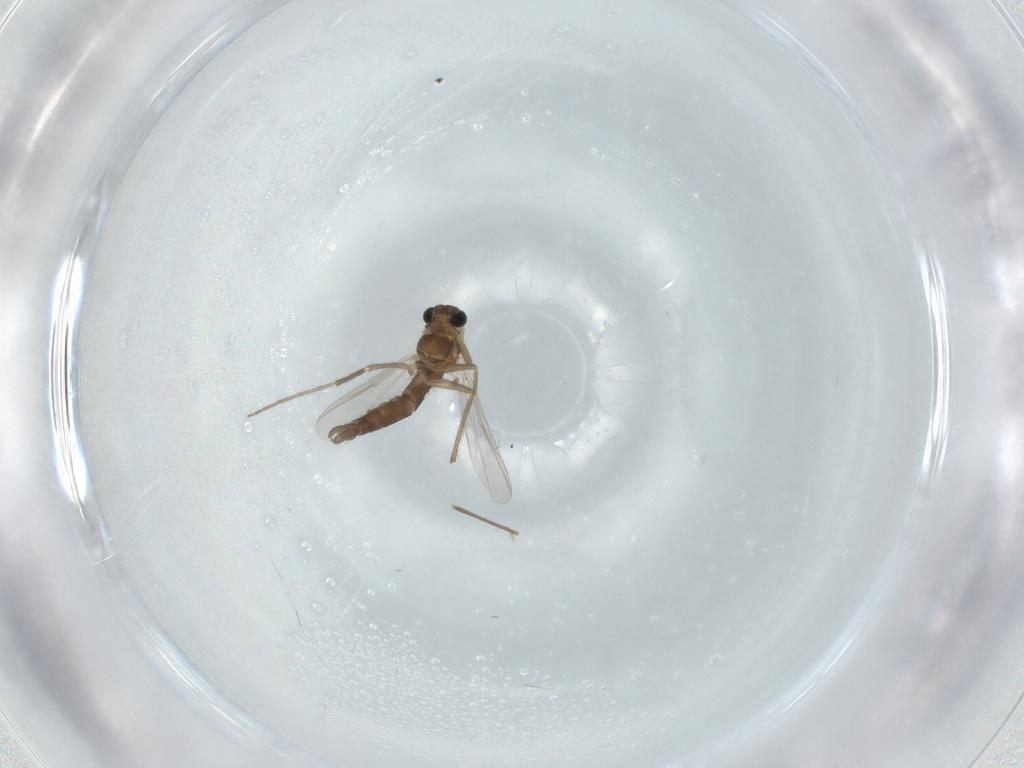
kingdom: Animalia
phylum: Arthropoda
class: Insecta
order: Diptera
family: Chironomidae
